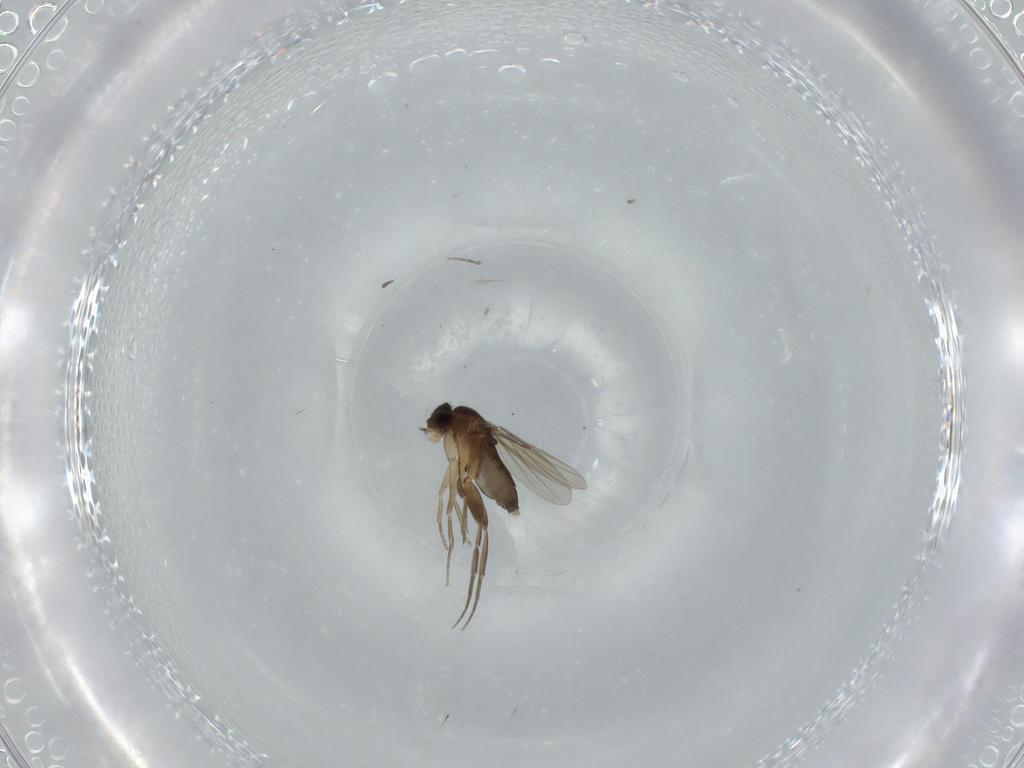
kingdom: Animalia
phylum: Arthropoda
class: Insecta
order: Diptera
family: Phoridae
